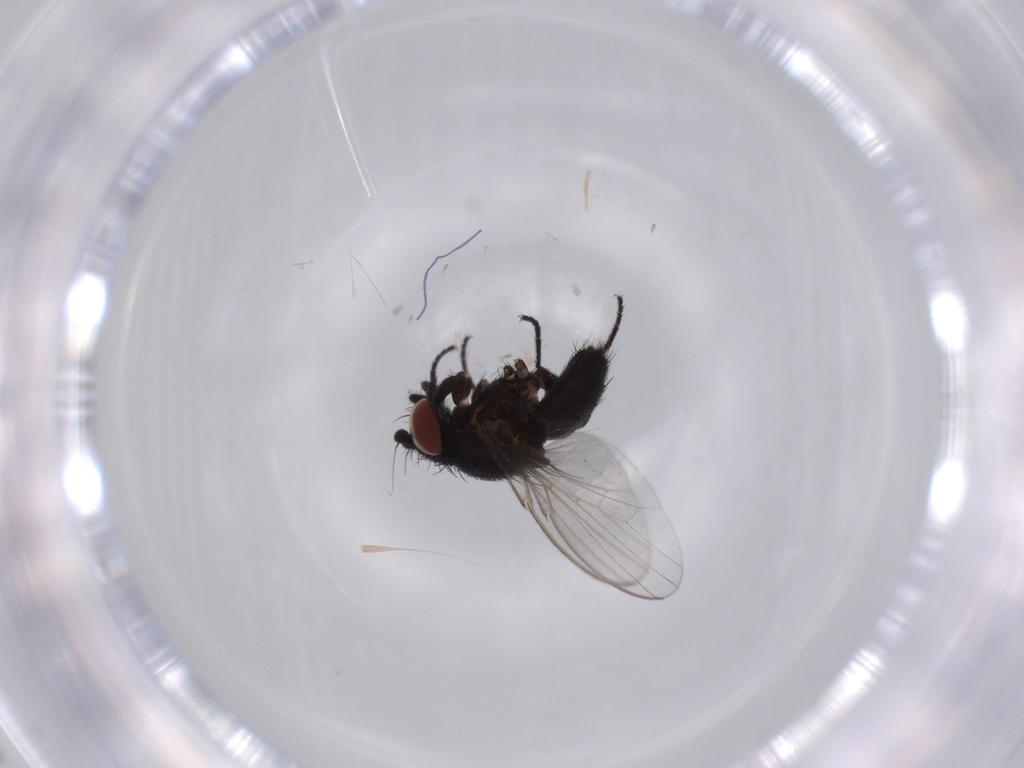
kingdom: Animalia
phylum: Arthropoda
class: Insecta
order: Diptera
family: Milichiidae
